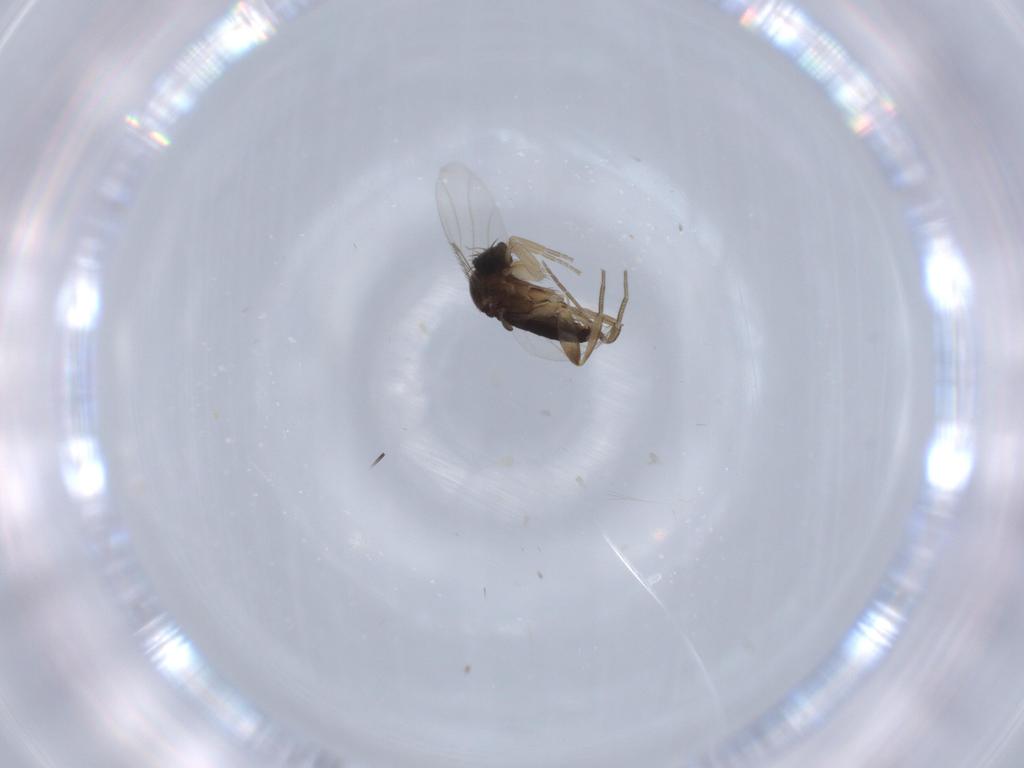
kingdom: Animalia
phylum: Arthropoda
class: Insecta
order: Diptera
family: Phoridae
